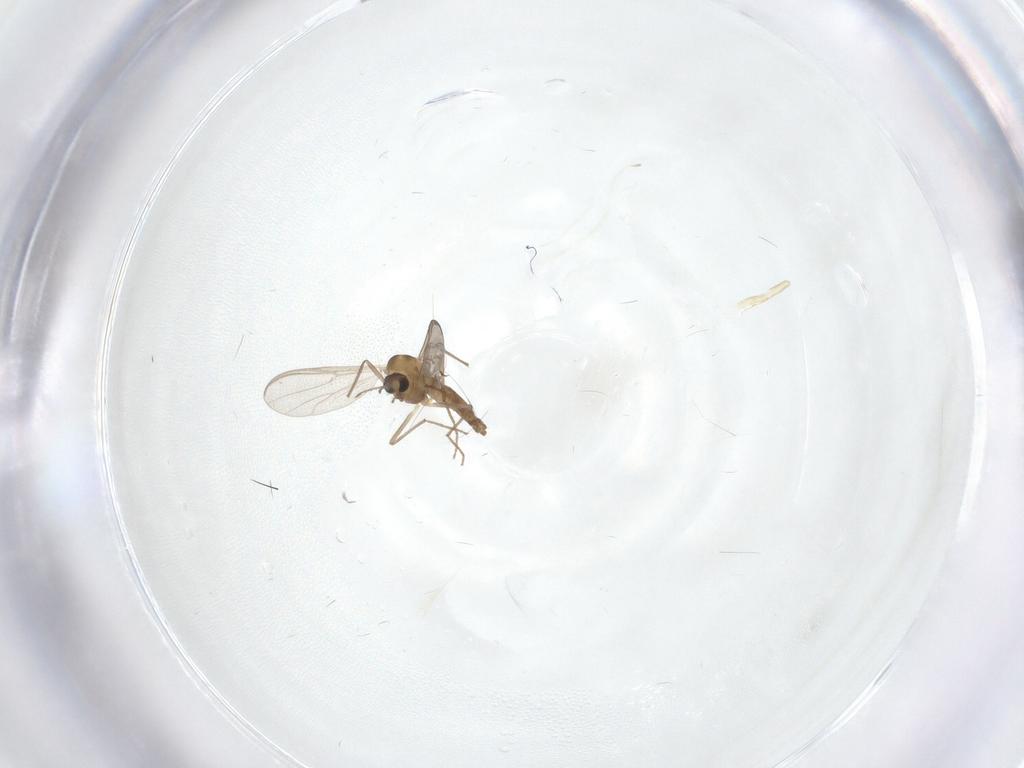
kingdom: Animalia
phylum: Arthropoda
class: Insecta
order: Diptera
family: Chironomidae
